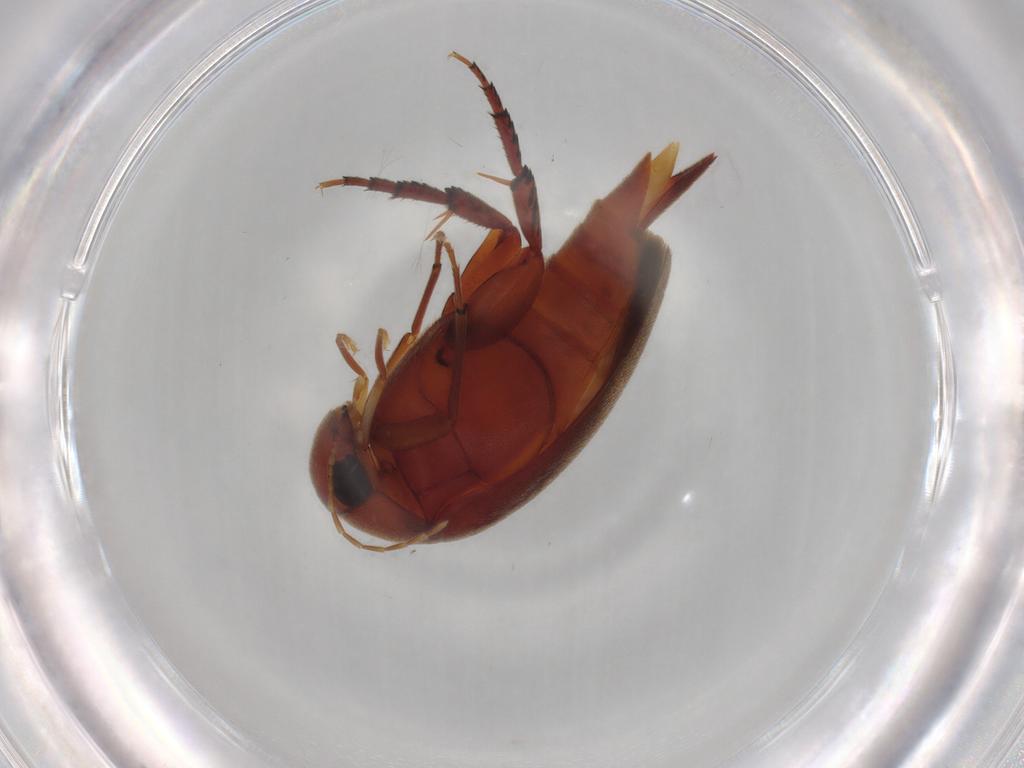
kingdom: Animalia
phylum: Arthropoda
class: Insecta
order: Coleoptera
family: Mordellidae
